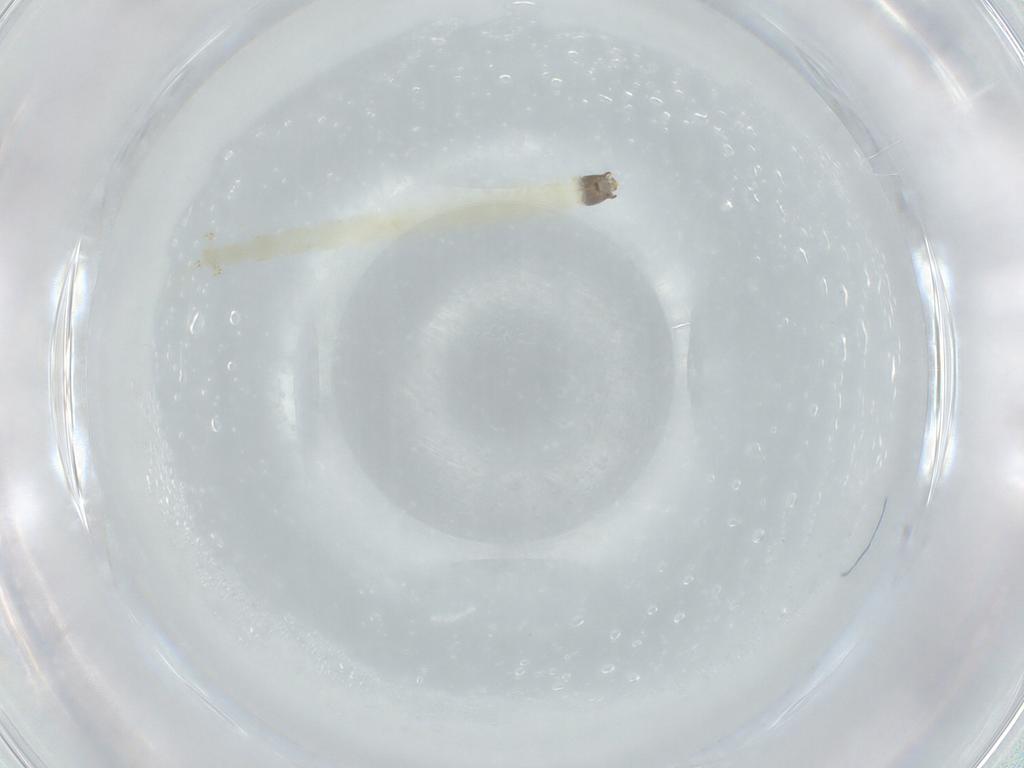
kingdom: Animalia
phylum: Arthropoda
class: Insecta
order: Diptera
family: Chironomidae
